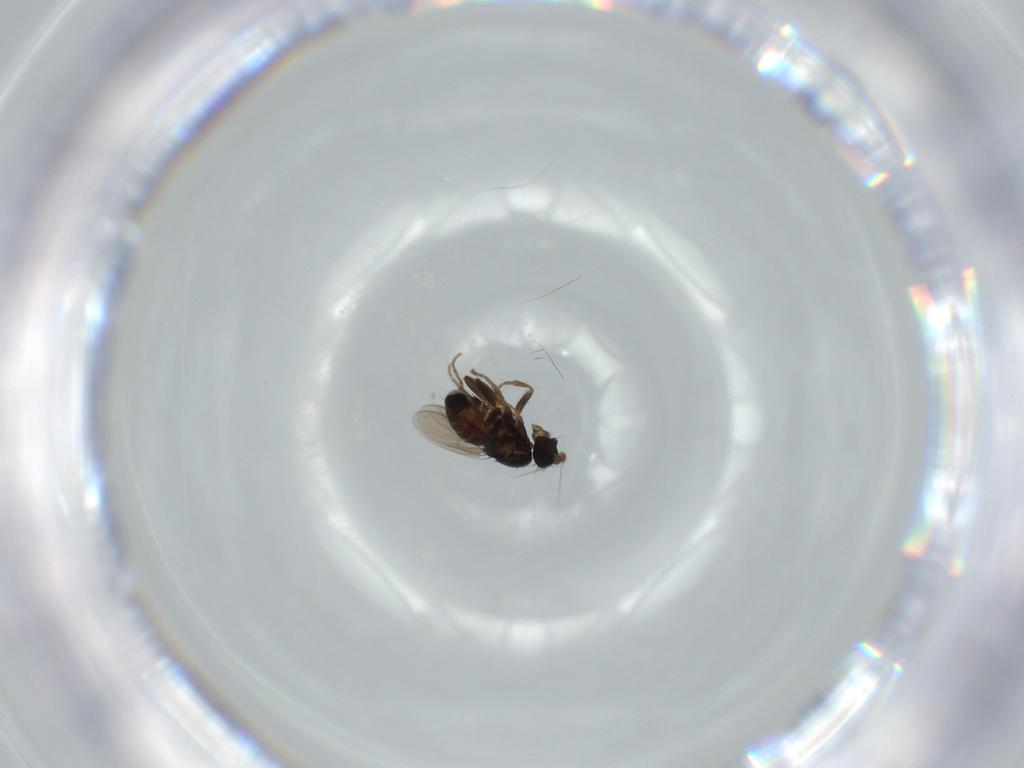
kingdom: Animalia
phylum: Arthropoda
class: Insecta
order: Diptera
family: Sphaeroceridae
